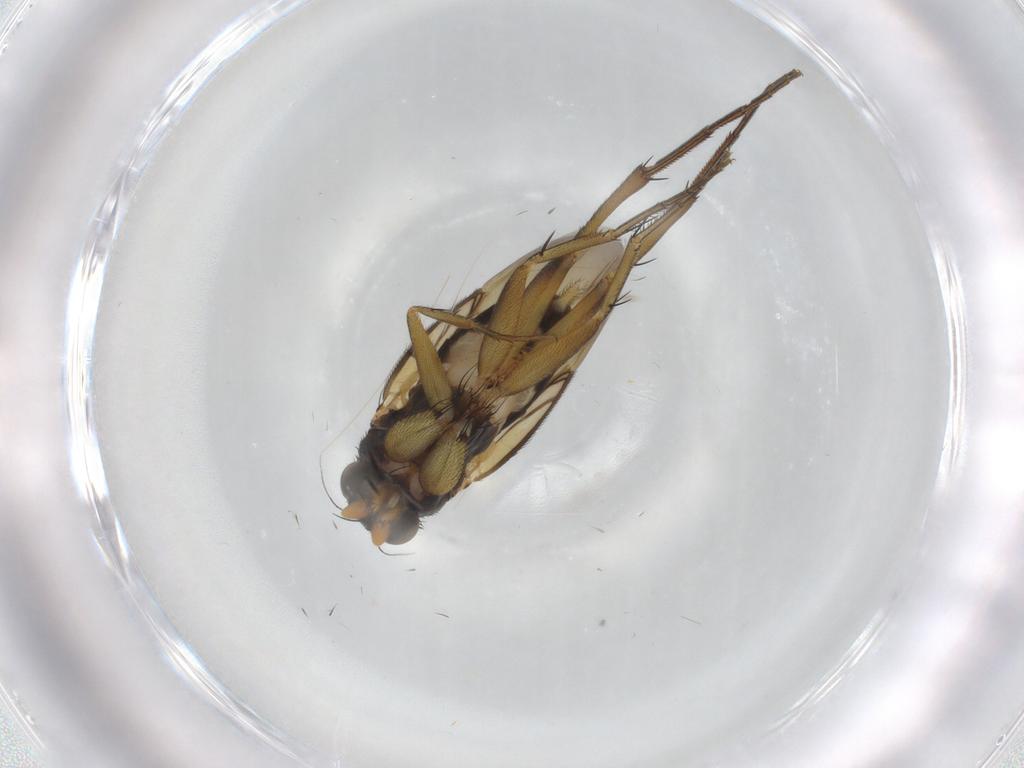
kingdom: Animalia
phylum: Arthropoda
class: Insecta
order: Diptera
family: Phoridae
